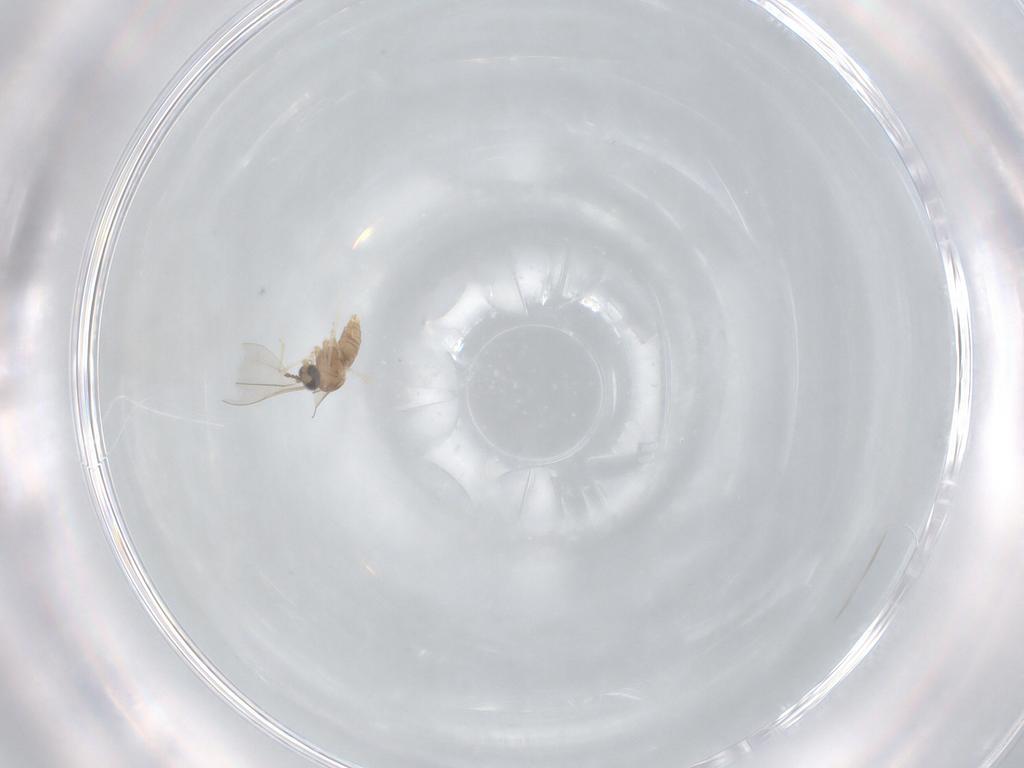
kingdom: Animalia
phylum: Arthropoda
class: Insecta
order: Diptera
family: Cecidomyiidae
